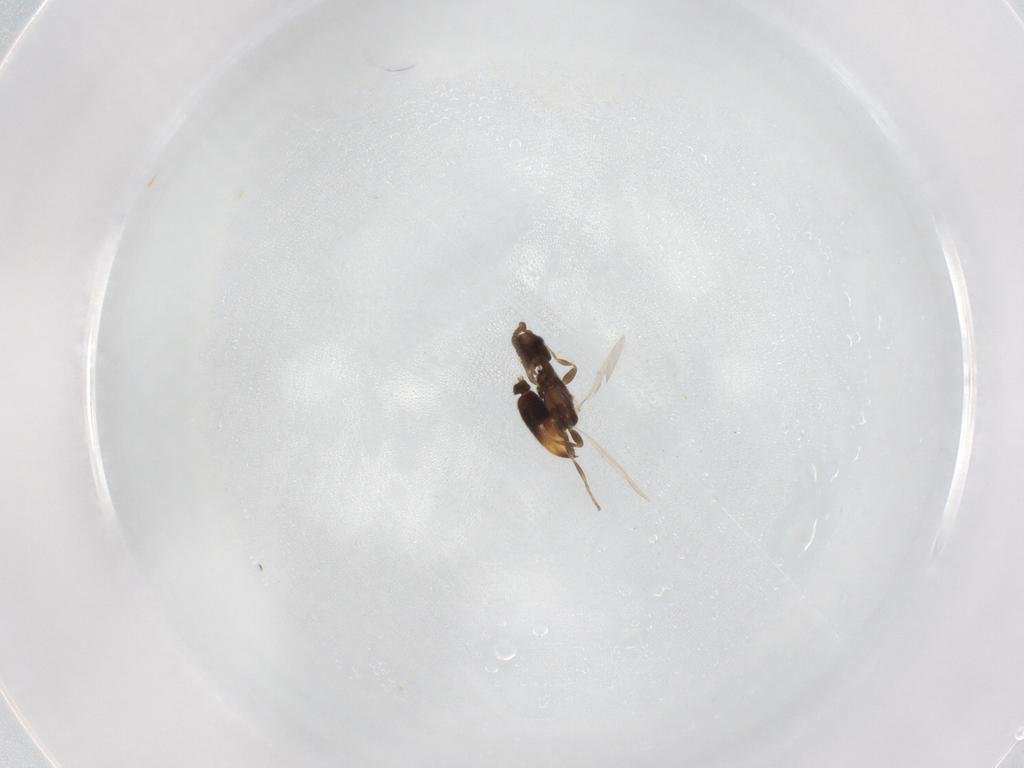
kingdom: Animalia
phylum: Arthropoda
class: Insecta
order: Hymenoptera
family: Formicidae
